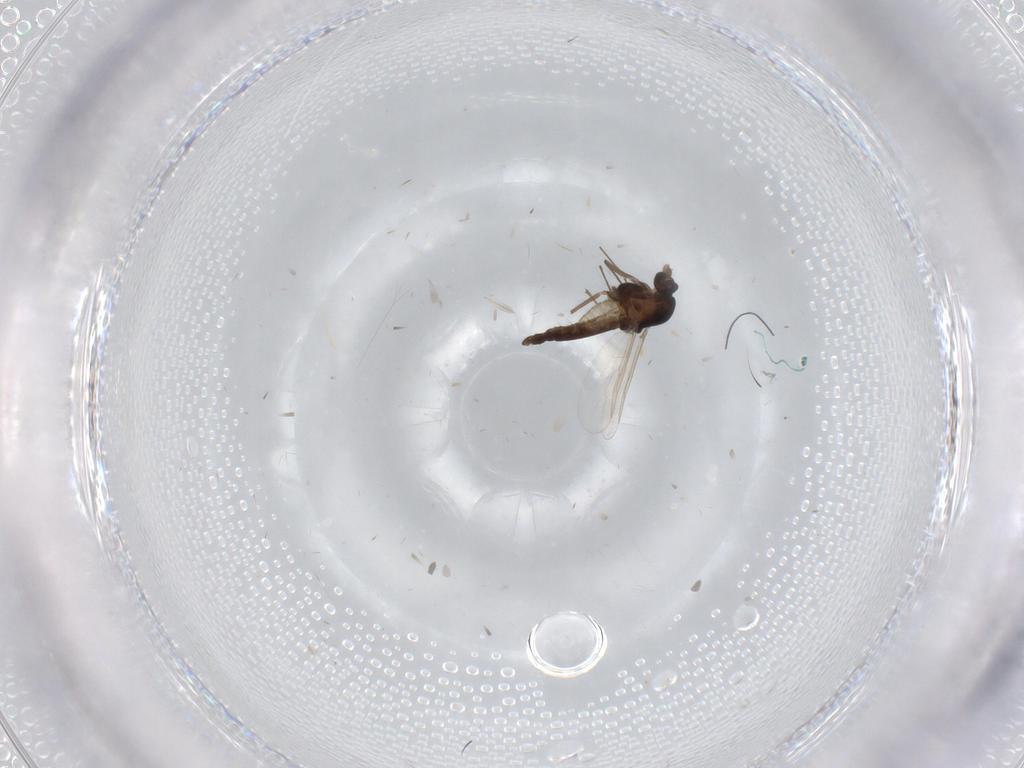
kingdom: Animalia
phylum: Arthropoda
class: Insecta
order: Diptera
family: Chironomidae
